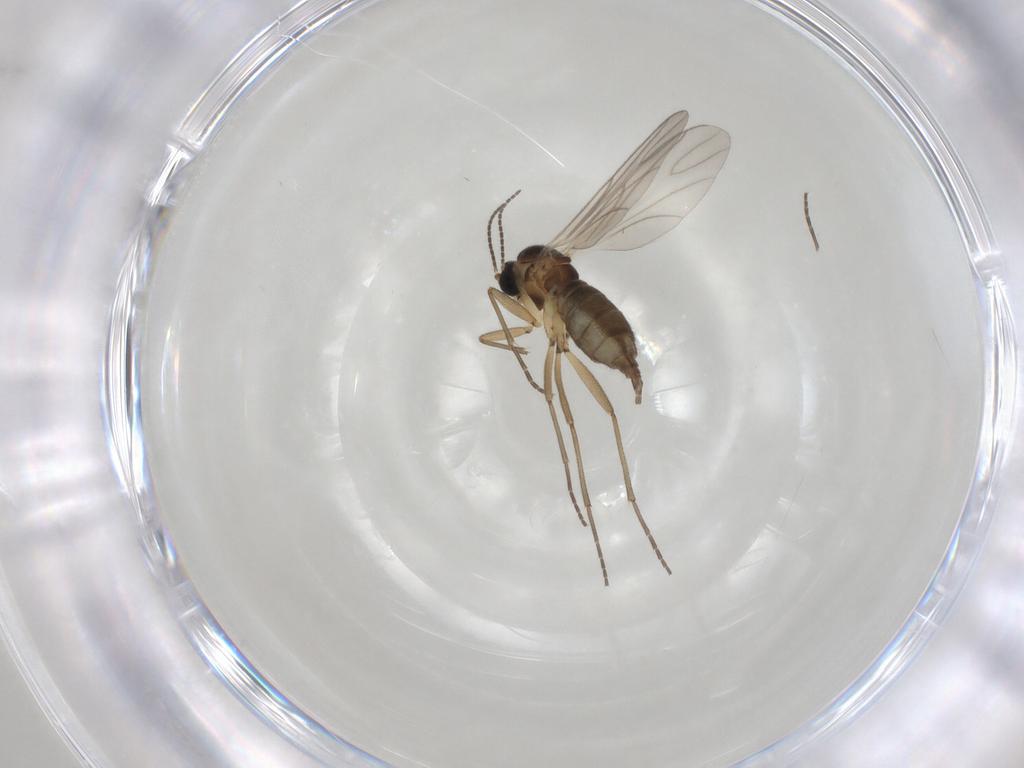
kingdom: Animalia
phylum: Arthropoda
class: Insecta
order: Diptera
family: Sciaridae
